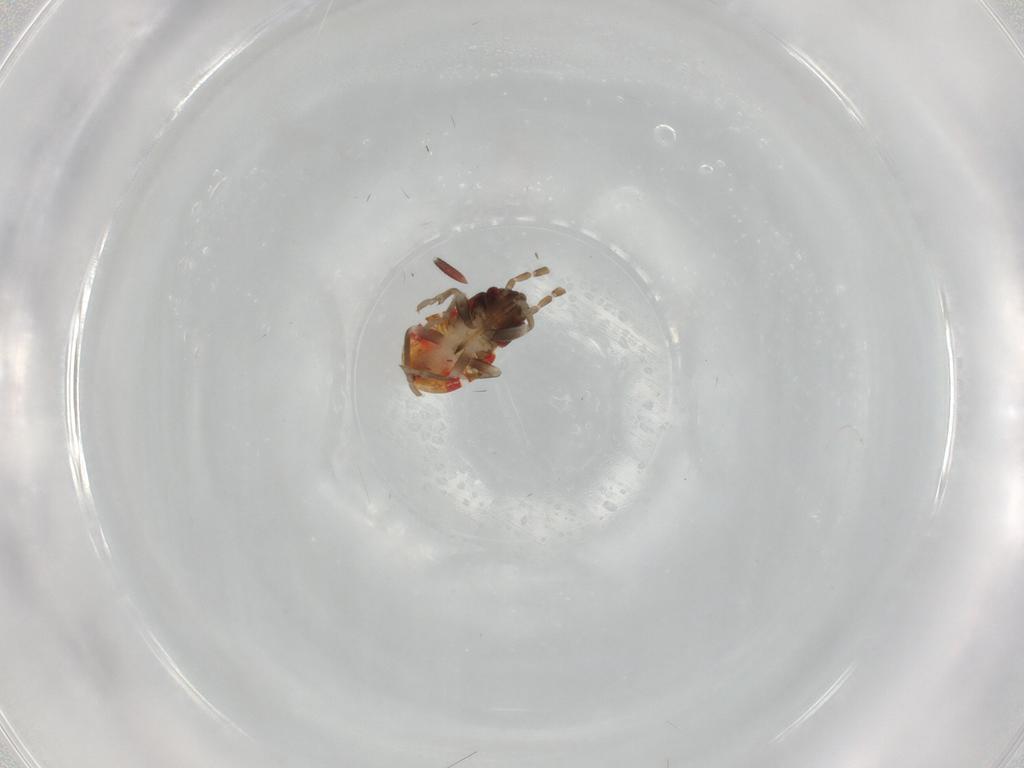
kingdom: Animalia
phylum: Arthropoda
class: Insecta
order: Hemiptera
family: Rhyparochromidae
